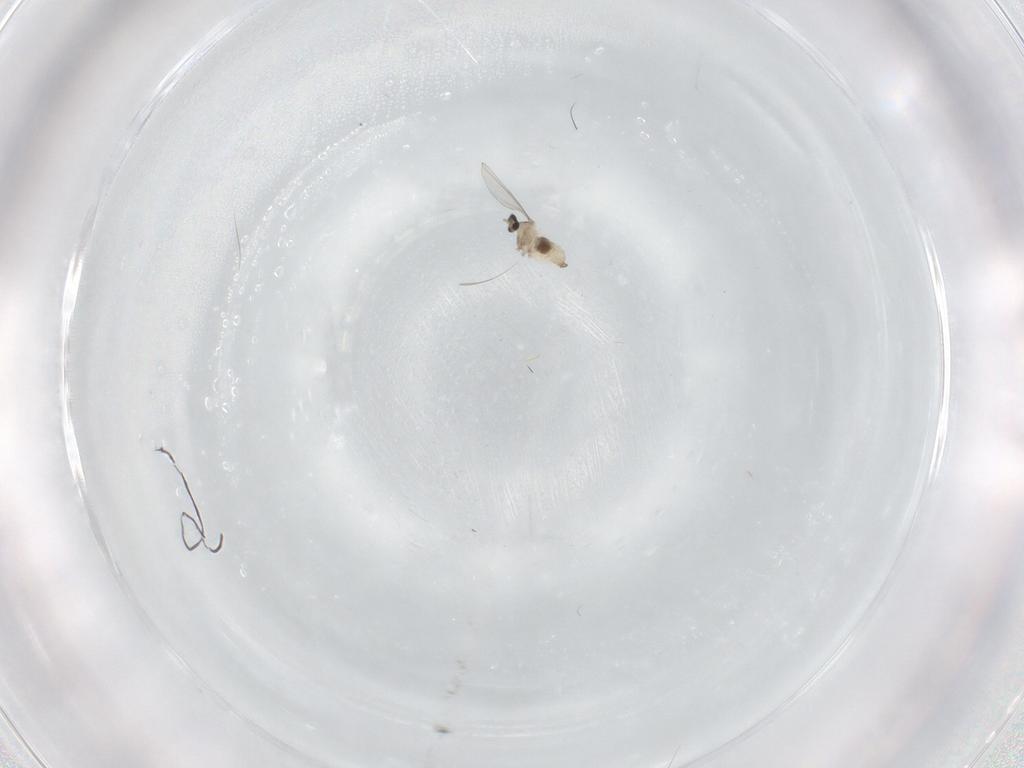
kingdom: Animalia
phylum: Arthropoda
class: Insecta
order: Diptera
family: Cecidomyiidae
